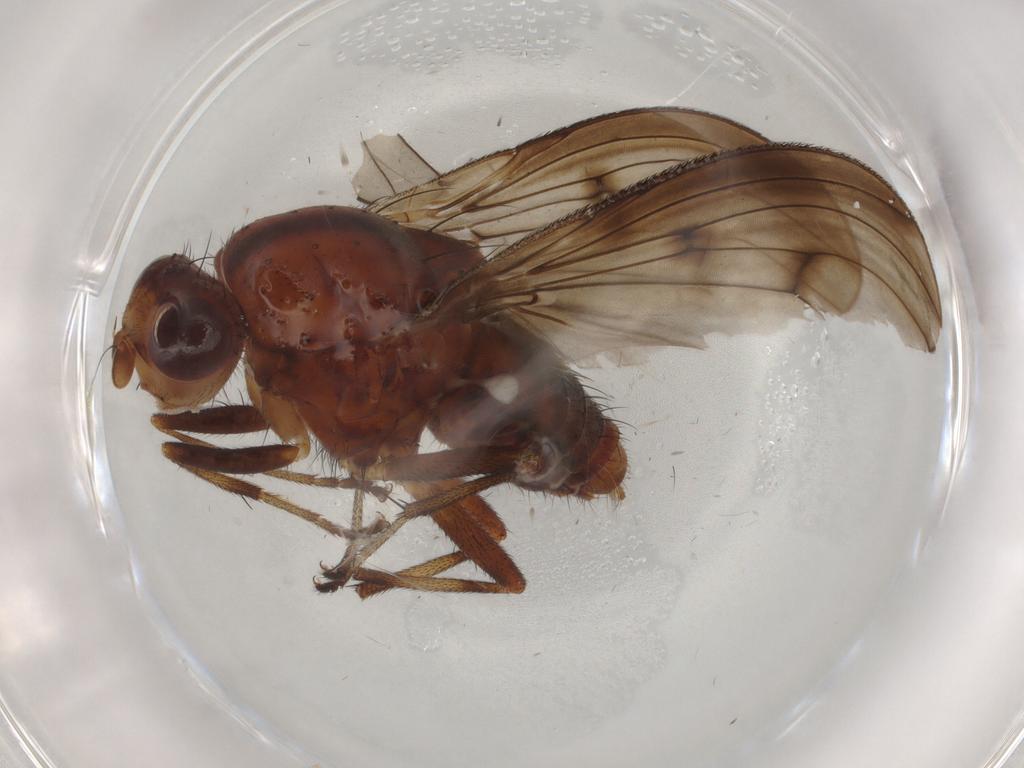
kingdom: Animalia
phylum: Arthropoda
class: Insecta
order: Diptera
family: Heleomyzidae
